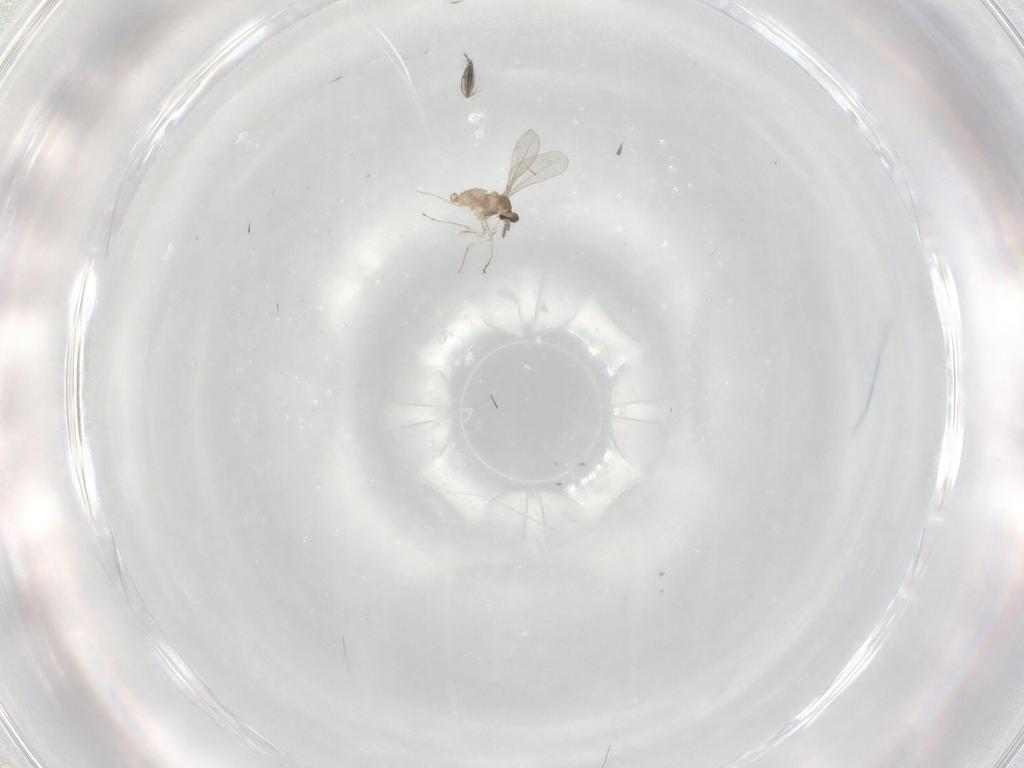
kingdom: Animalia
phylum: Arthropoda
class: Insecta
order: Diptera
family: Cecidomyiidae
